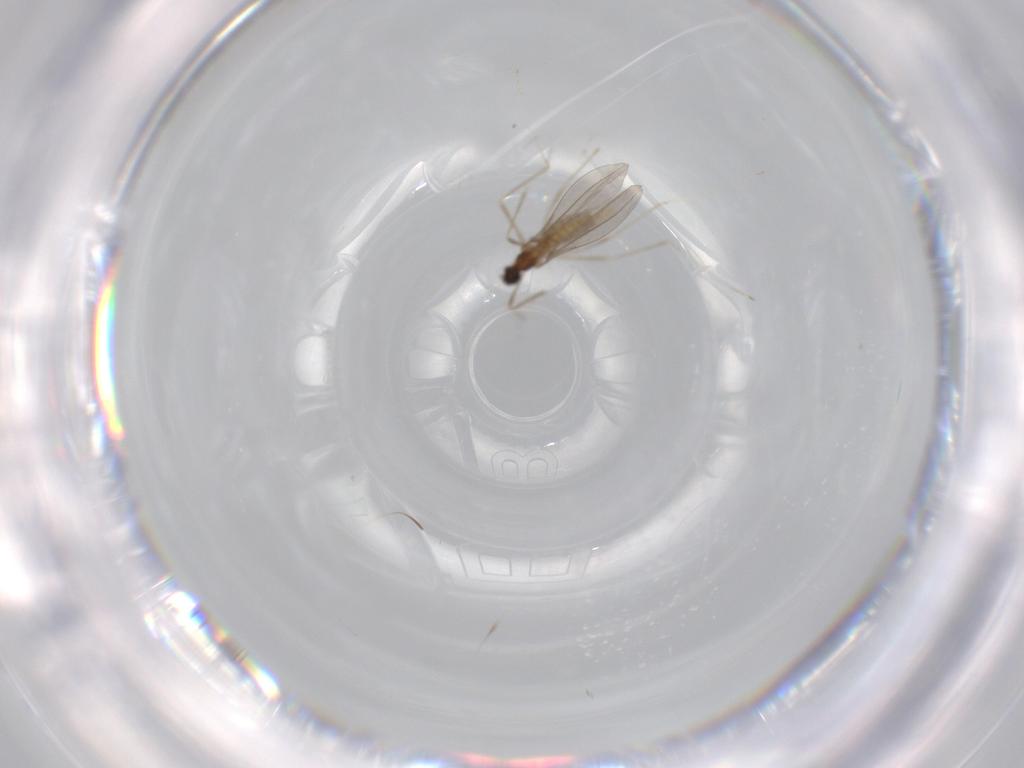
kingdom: Animalia
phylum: Arthropoda
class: Insecta
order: Diptera
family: Cecidomyiidae
